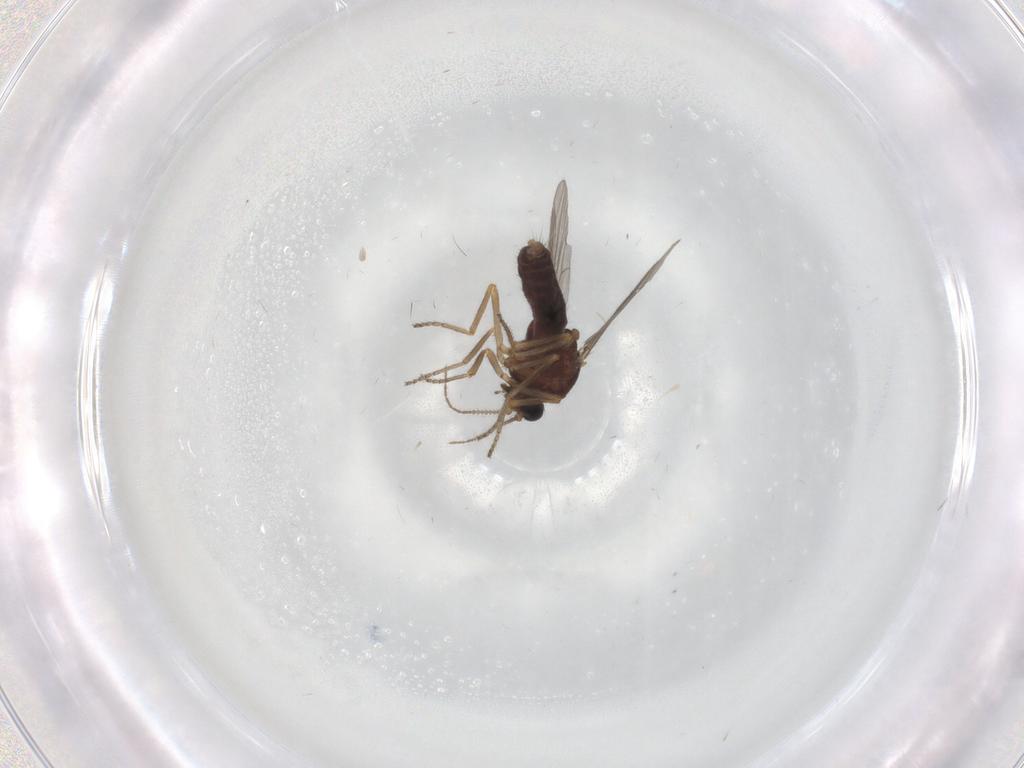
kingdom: Animalia
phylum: Arthropoda
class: Insecta
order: Diptera
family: Ceratopogonidae
